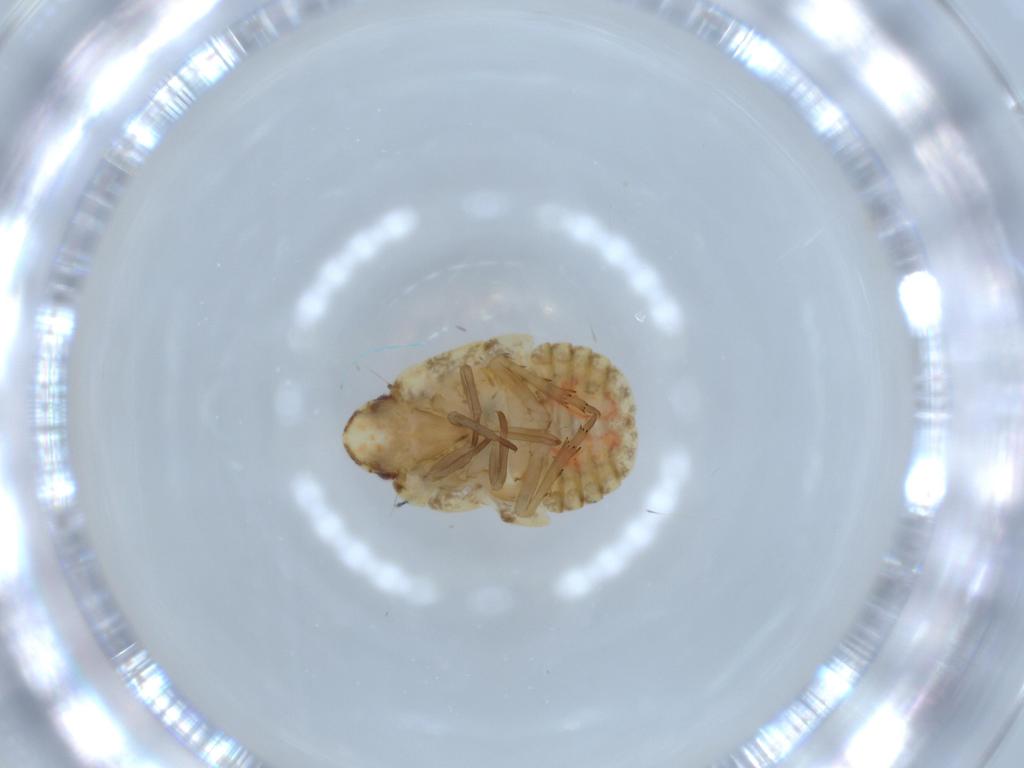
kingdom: Animalia
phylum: Arthropoda
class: Insecta
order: Hemiptera
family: Flatidae
